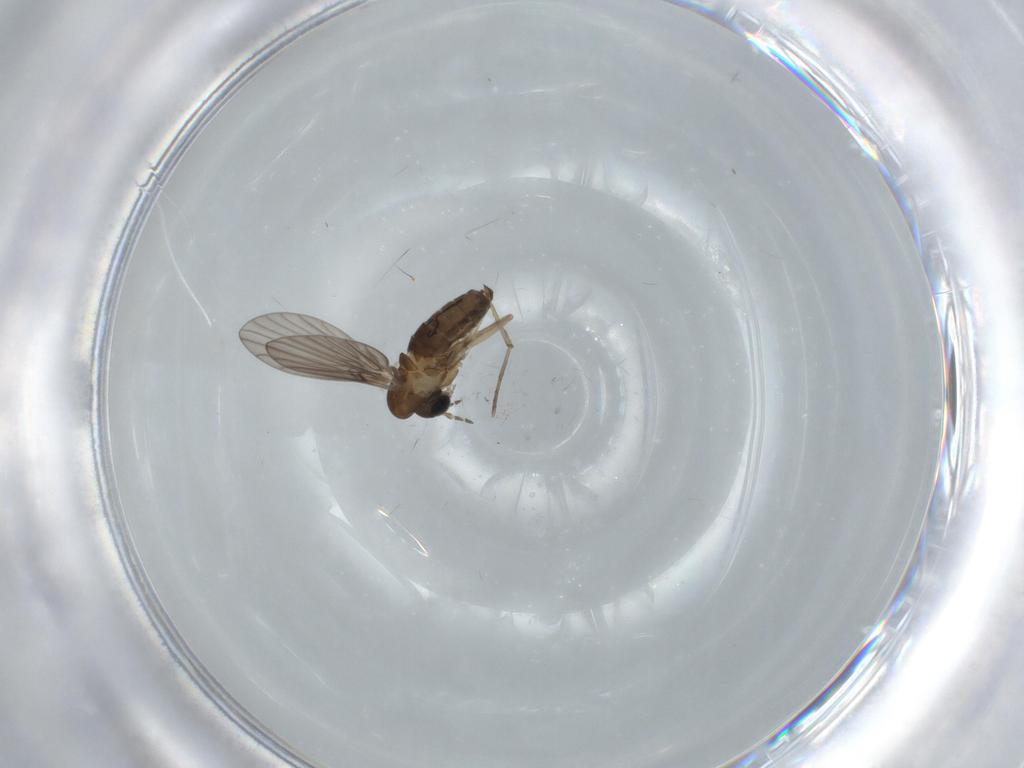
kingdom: Animalia
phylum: Arthropoda
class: Insecta
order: Diptera
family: Psychodidae
